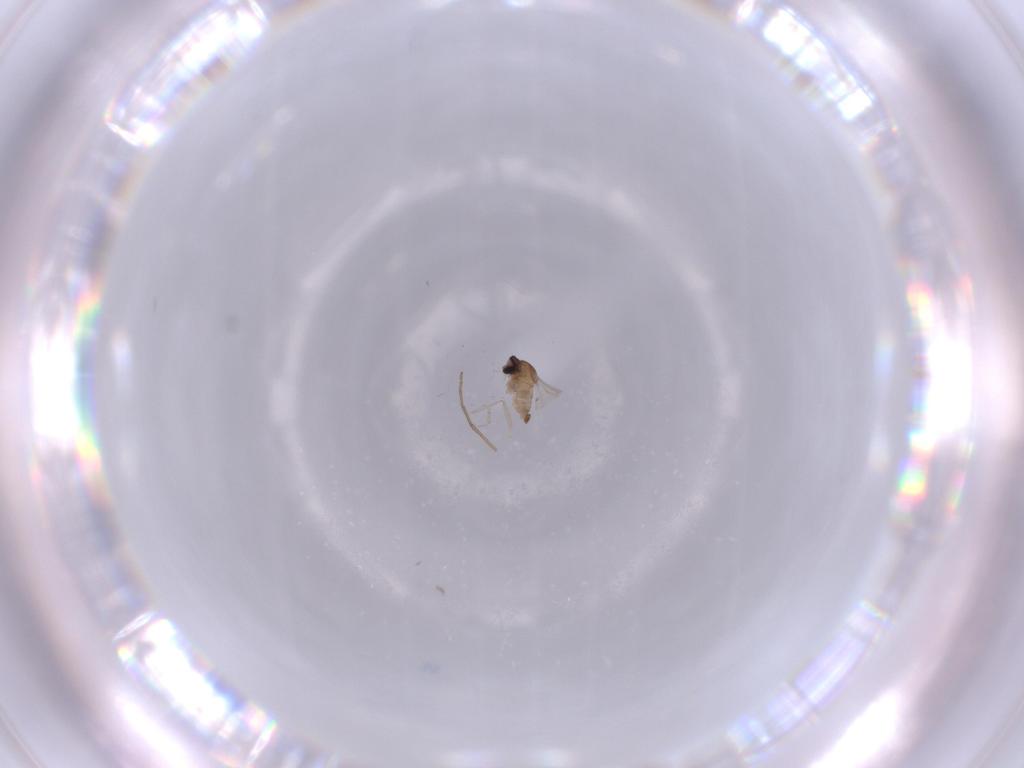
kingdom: Animalia
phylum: Arthropoda
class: Insecta
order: Diptera
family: Cecidomyiidae
